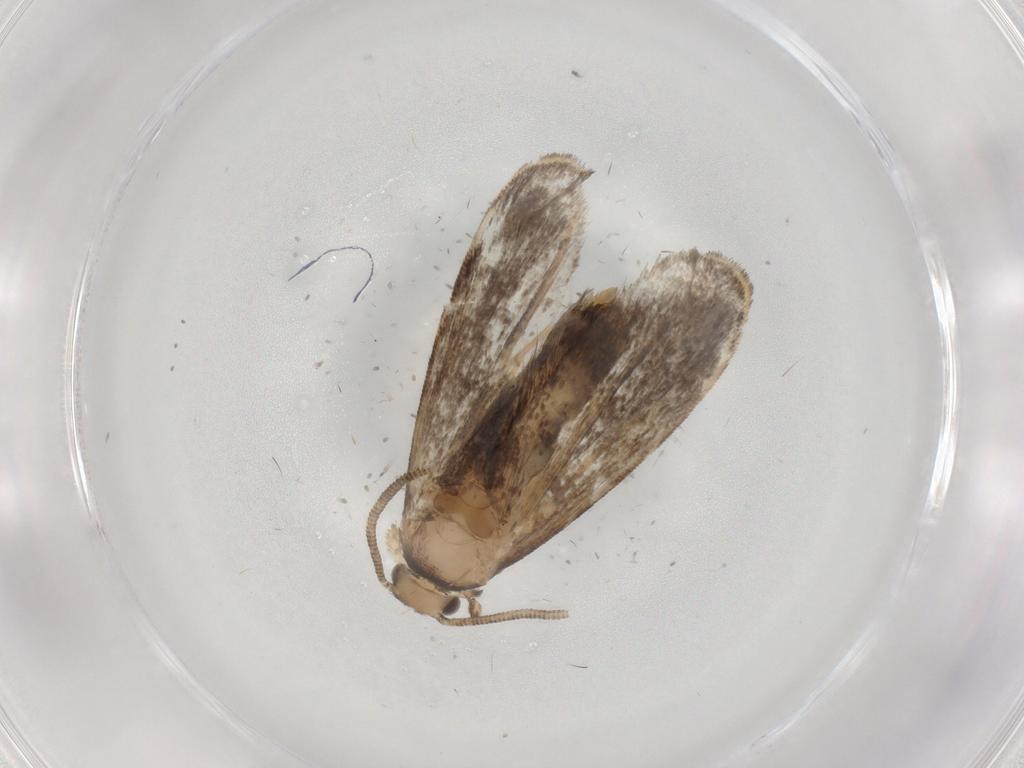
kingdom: Animalia
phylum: Arthropoda
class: Insecta
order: Lepidoptera
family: Dryadaulidae
